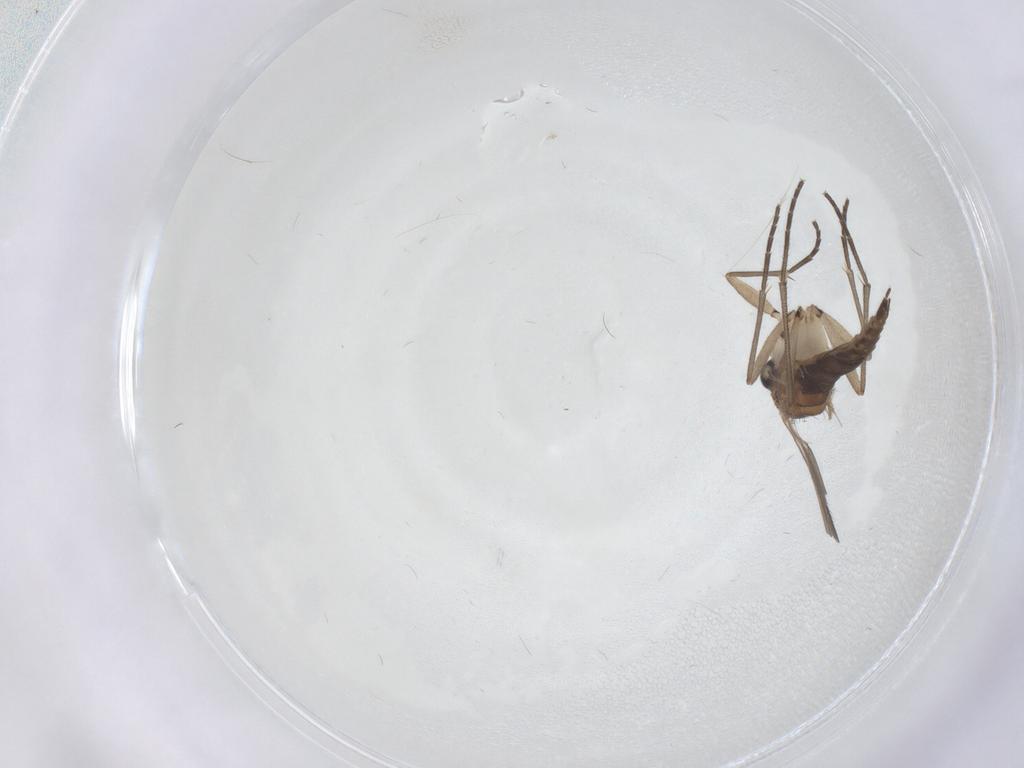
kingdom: Animalia
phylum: Arthropoda
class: Insecta
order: Diptera
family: Sciaridae
